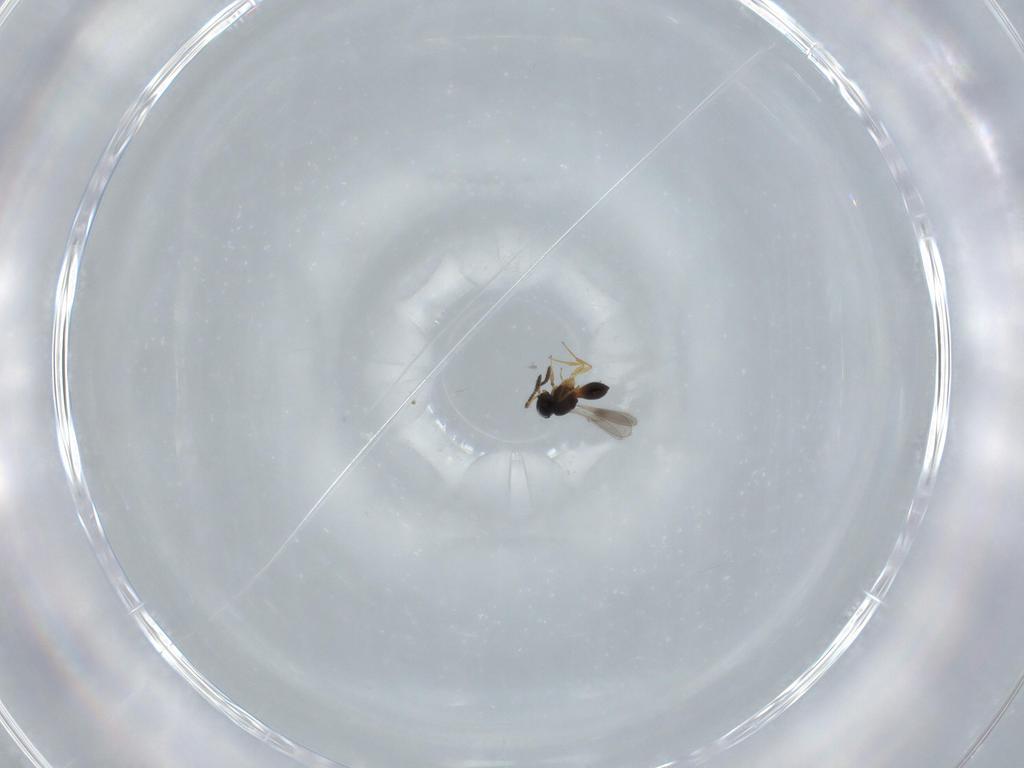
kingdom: Animalia
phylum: Arthropoda
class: Insecta
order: Hymenoptera
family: Scelionidae
